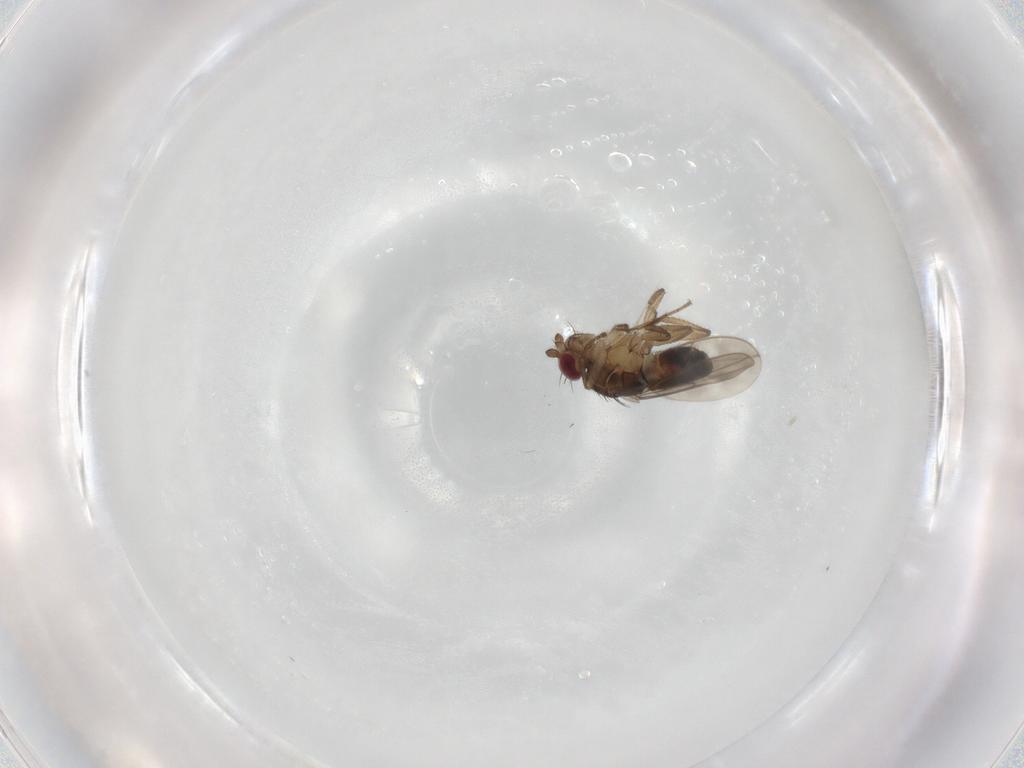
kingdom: Animalia
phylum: Arthropoda
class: Insecta
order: Diptera
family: Sphaeroceridae
